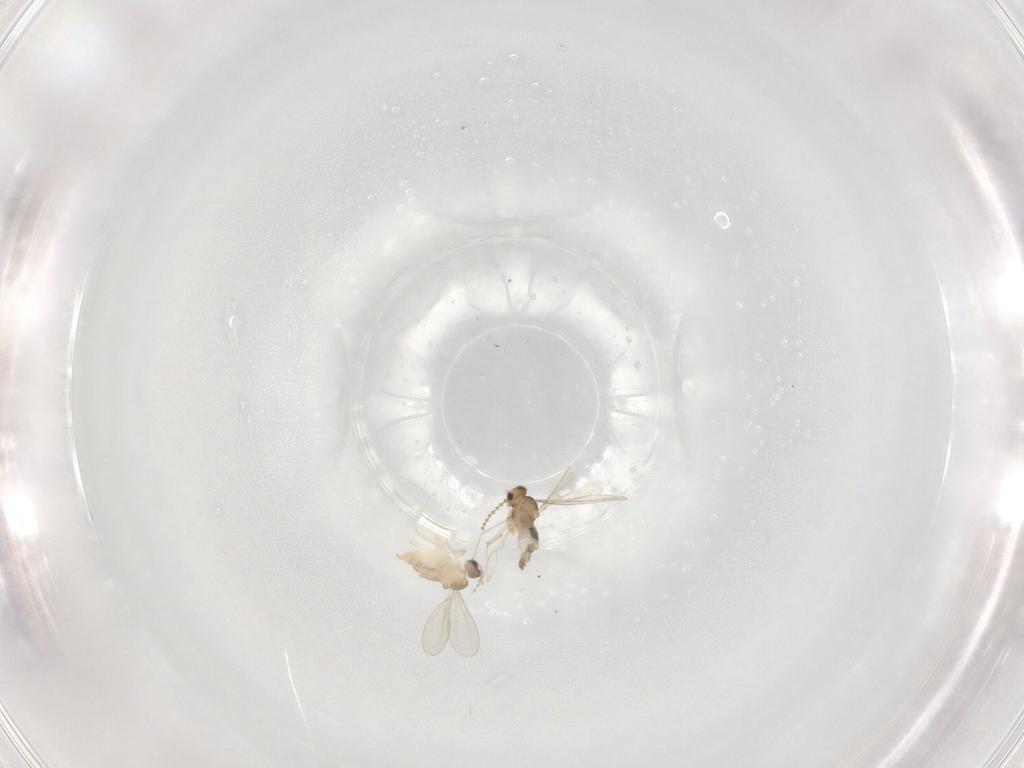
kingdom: Animalia
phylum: Arthropoda
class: Insecta
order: Diptera
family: Cecidomyiidae
